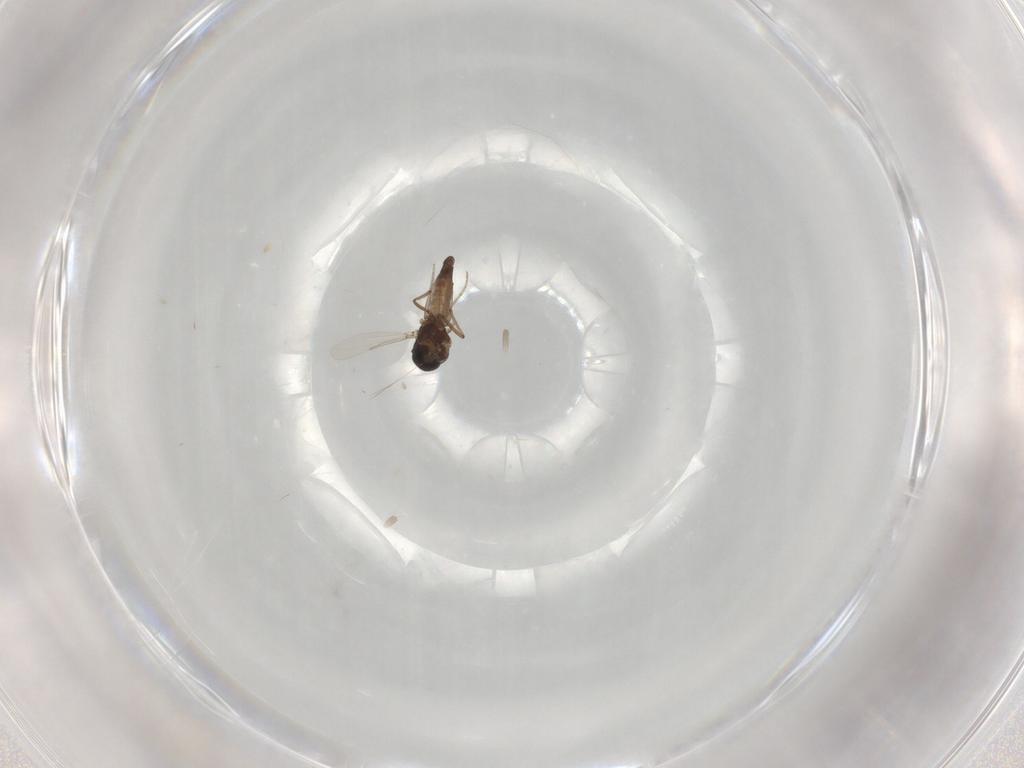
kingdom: Animalia
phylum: Arthropoda
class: Insecta
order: Diptera
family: Ceratopogonidae
